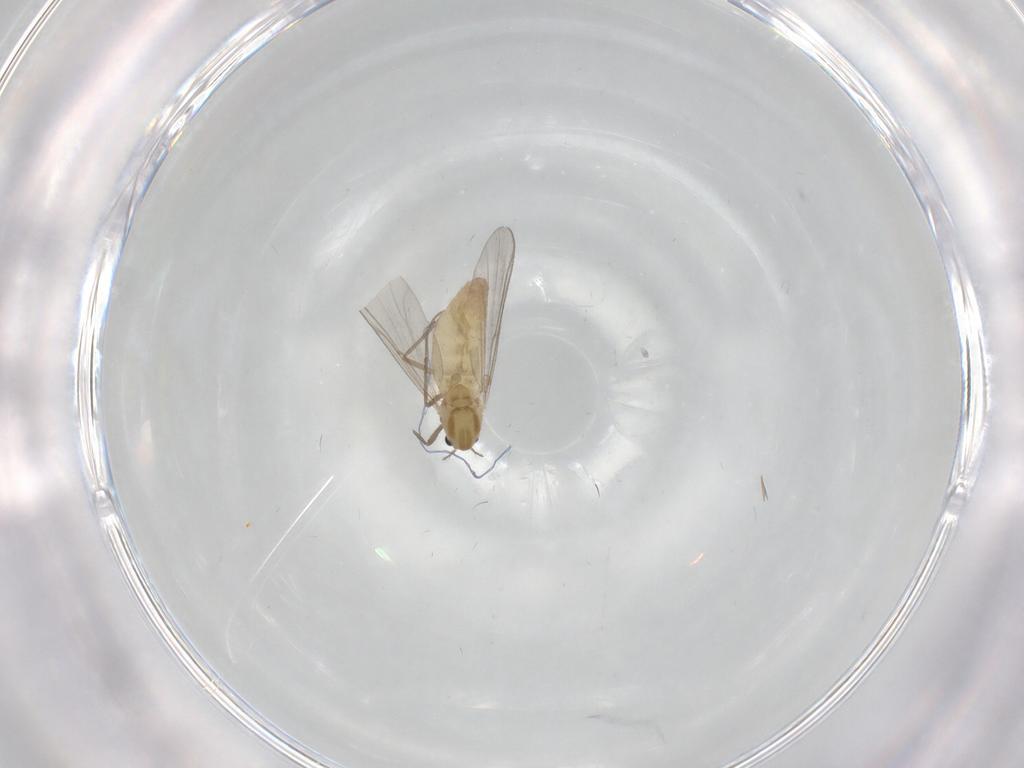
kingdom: Animalia
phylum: Arthropoda
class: Insecta
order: Diptera
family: Chironomidae
